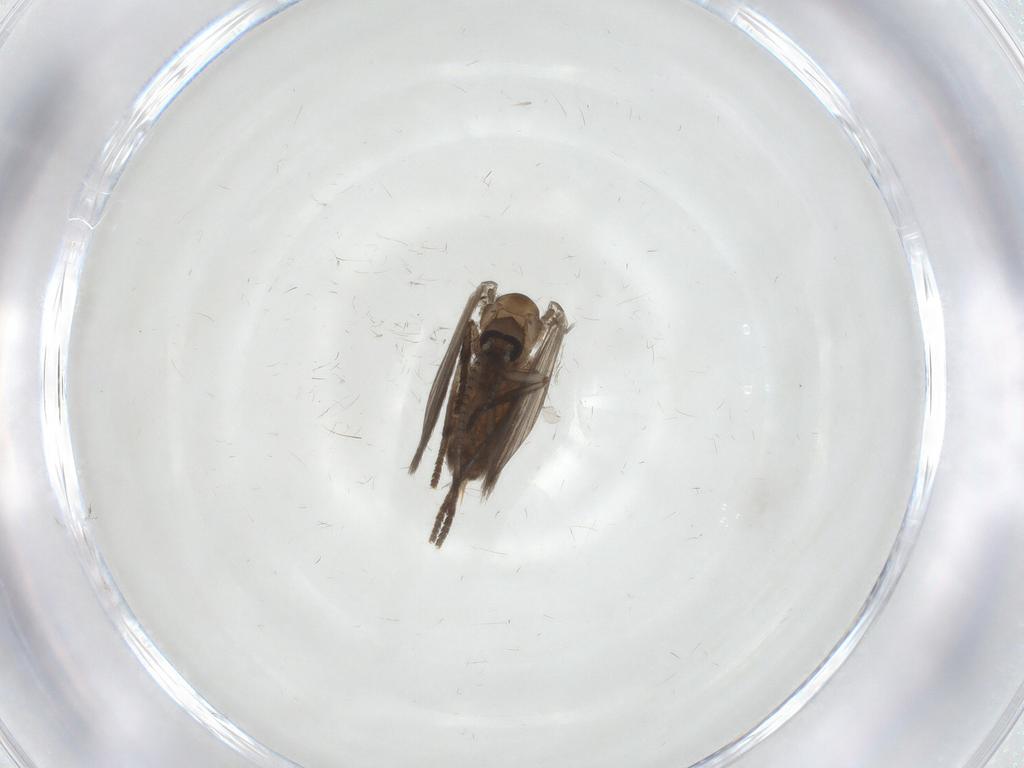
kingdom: Animalia
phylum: Arthropoda
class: Insecta
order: Diptera
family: Psychodidae
